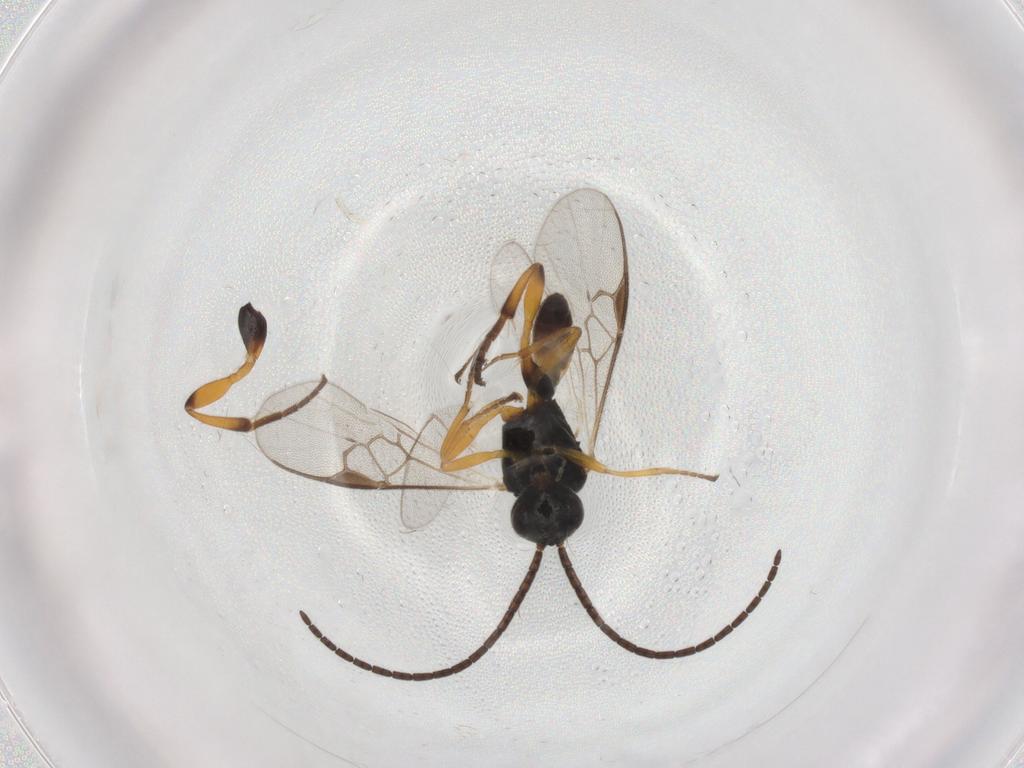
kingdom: Animalia
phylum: Arthropoda
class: Insecta
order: Hymenoptera
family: Braconidae
